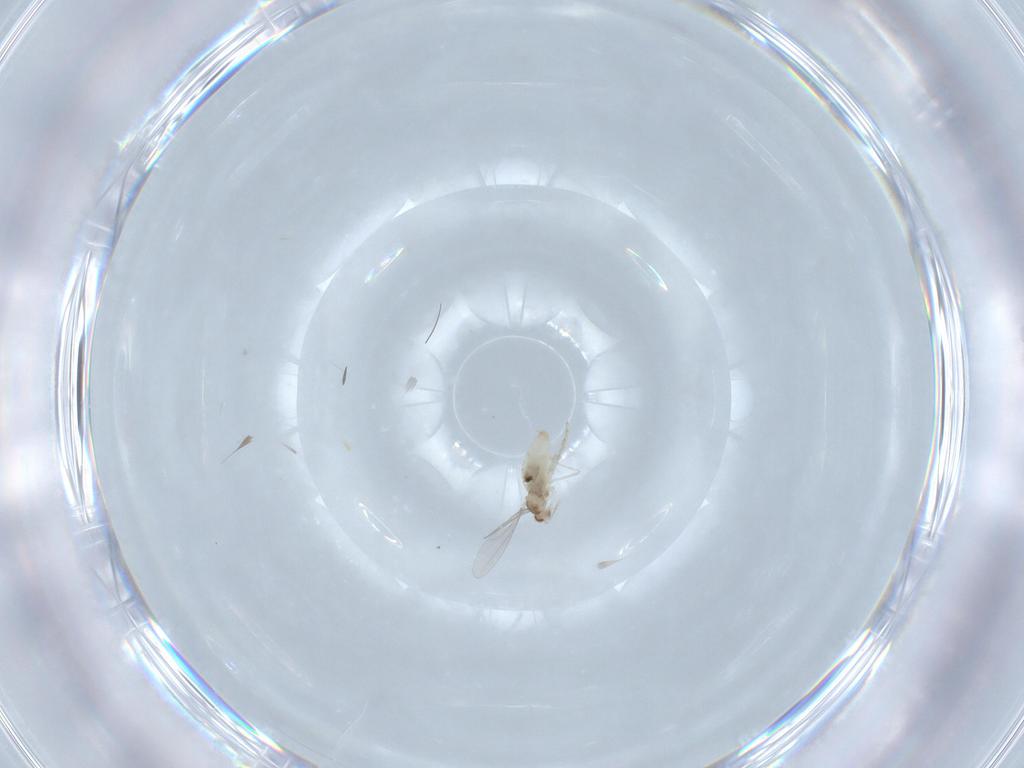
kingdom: Animalia
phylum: Arthropoda
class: Insecta
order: Diptera
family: Cecidomyiidae
